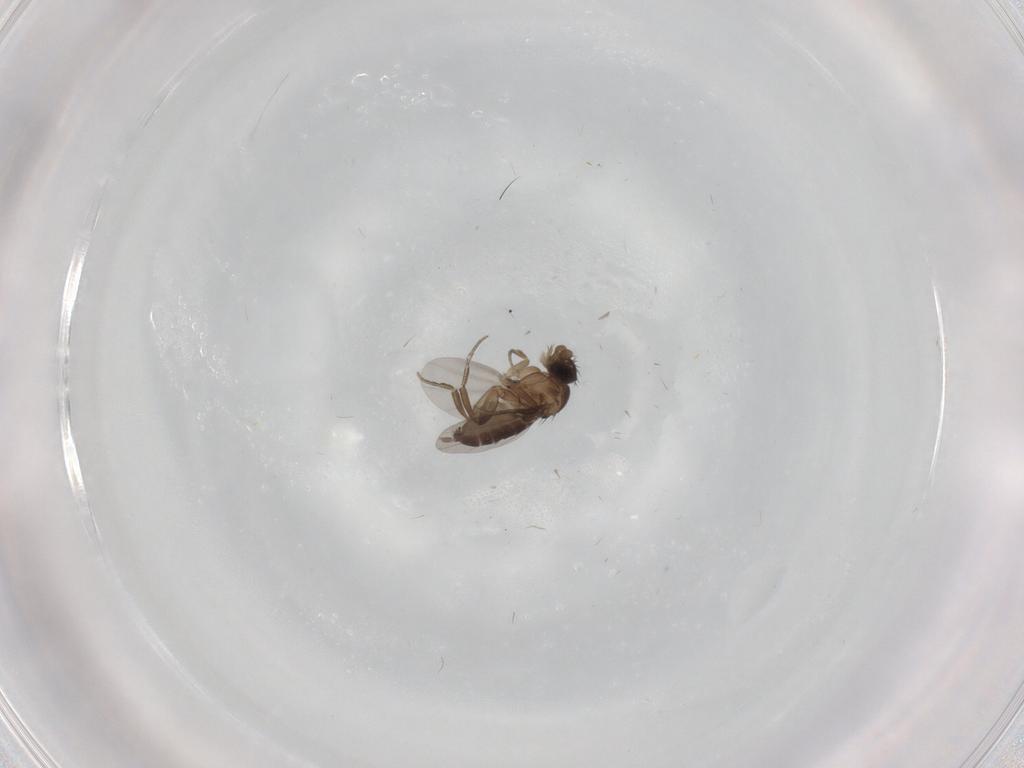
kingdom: Animalia
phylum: Arthropoda
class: Insecta
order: Diptera
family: Phoridae
